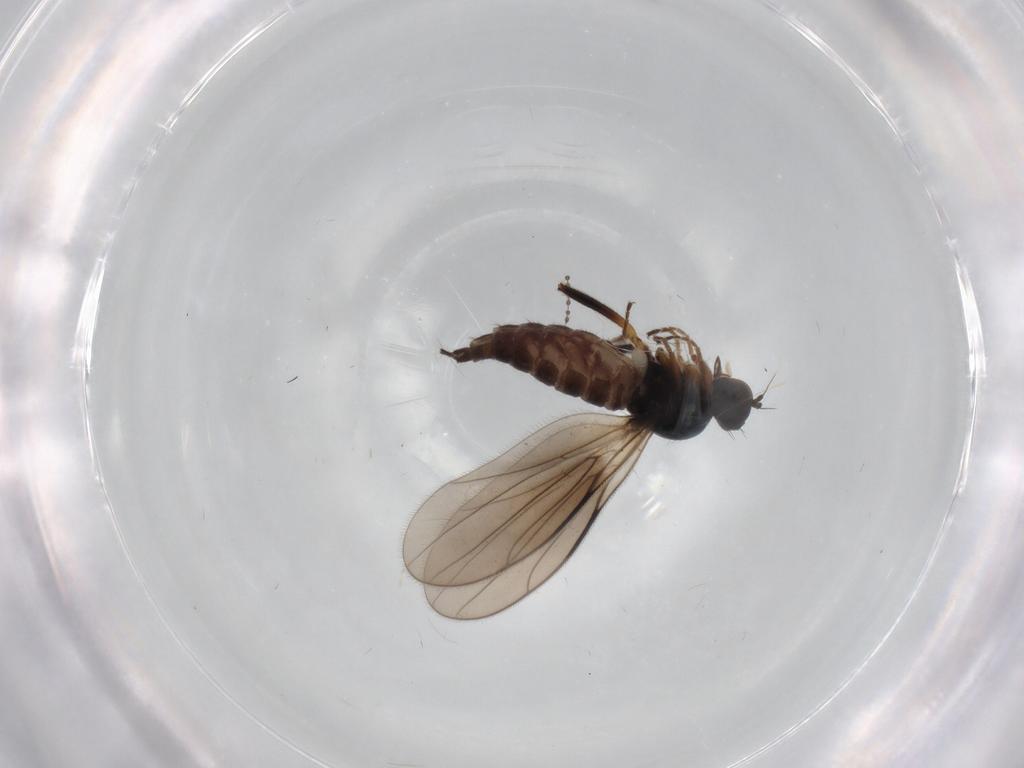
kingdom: Animalia
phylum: Arthropoda
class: Insecta
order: Diptera
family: Hybotidae
